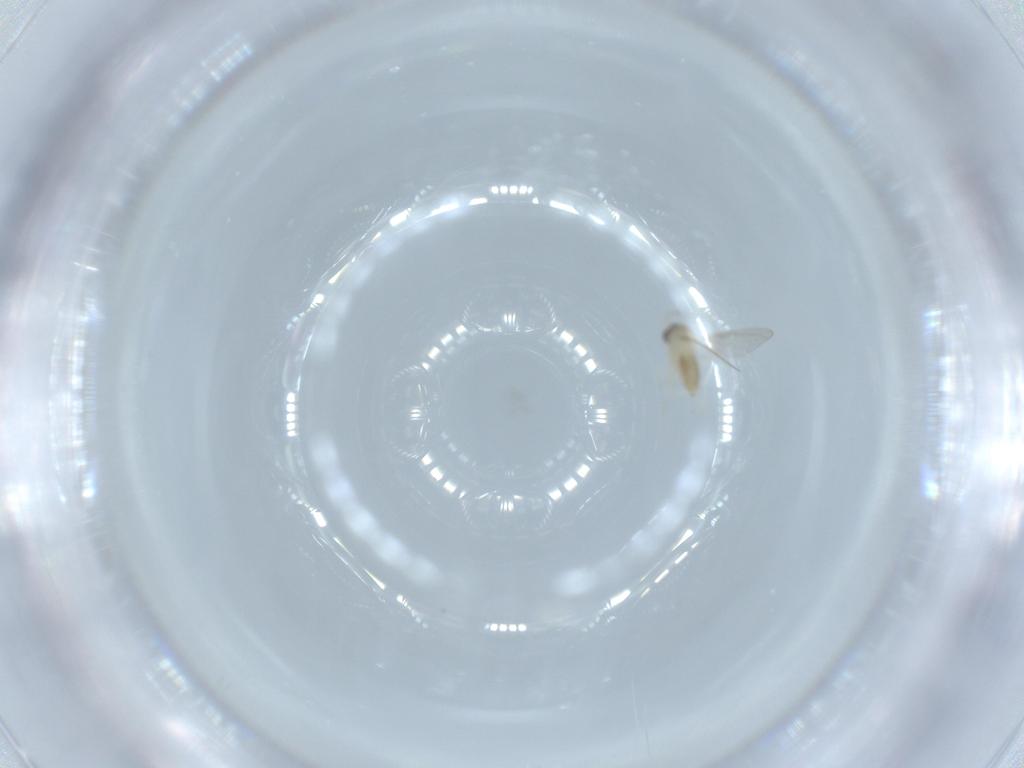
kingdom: Animalia
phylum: Arthropoda
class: Insecta
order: Diptera
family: Cecidomyiidae
